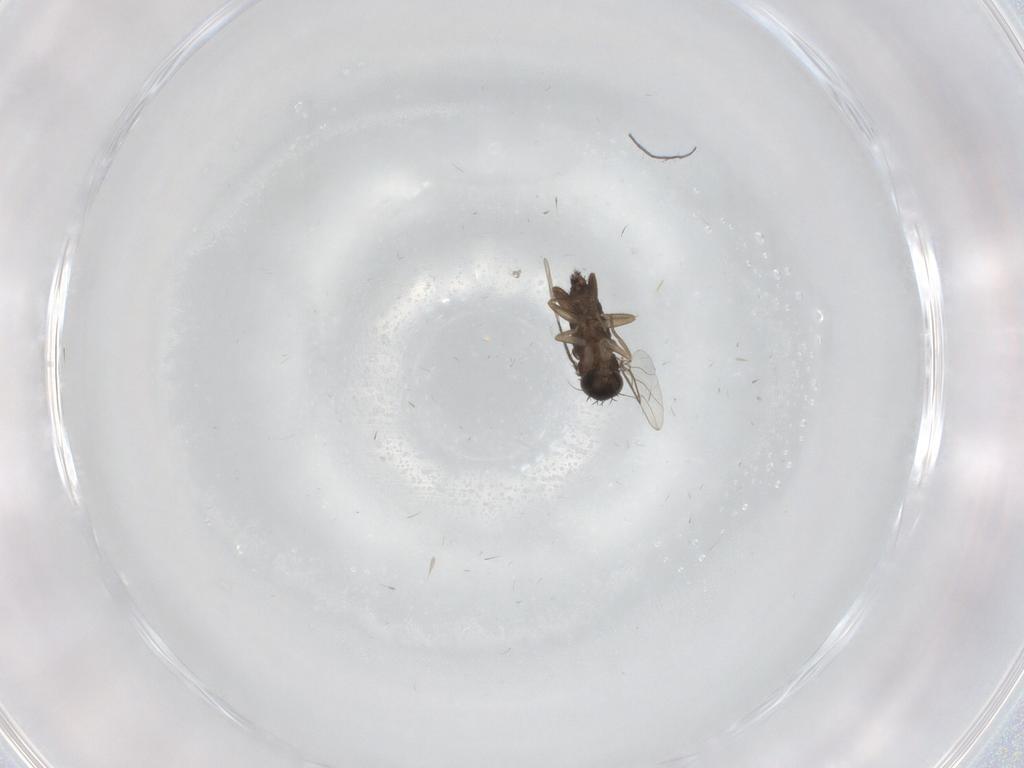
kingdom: Animalia
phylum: Arthropoda
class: Insecta
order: Diptera
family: Phoridae
